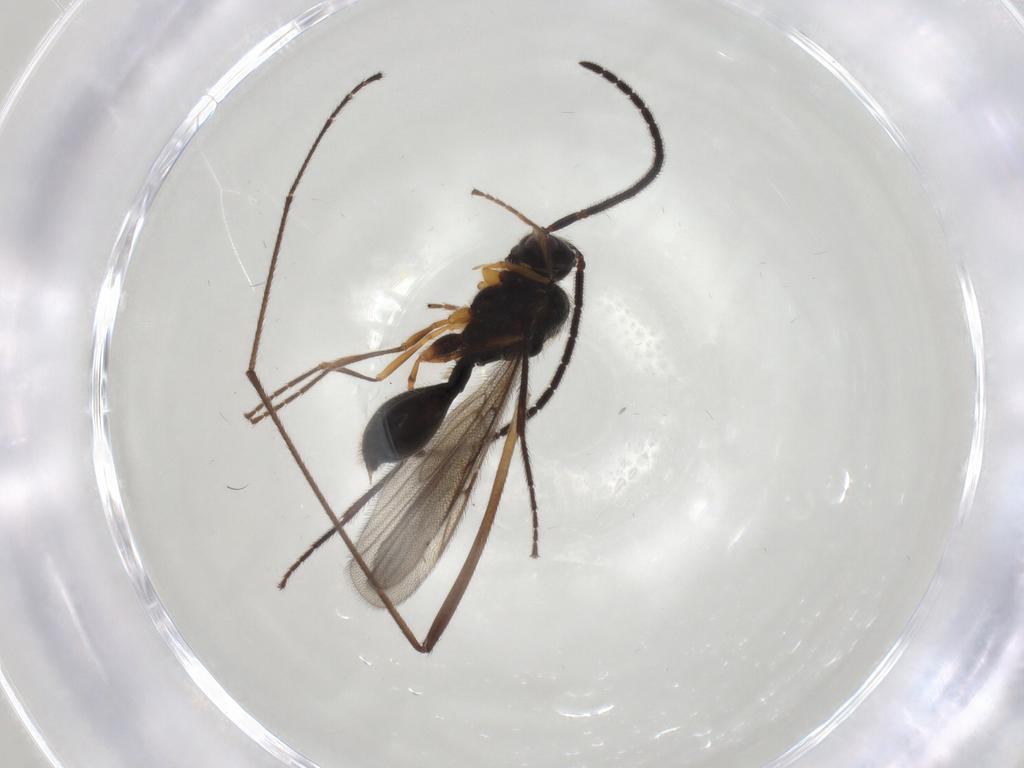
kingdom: Animalia
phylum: Arthropoda
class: Insecta
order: Hymenoptera
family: Diapriidae
